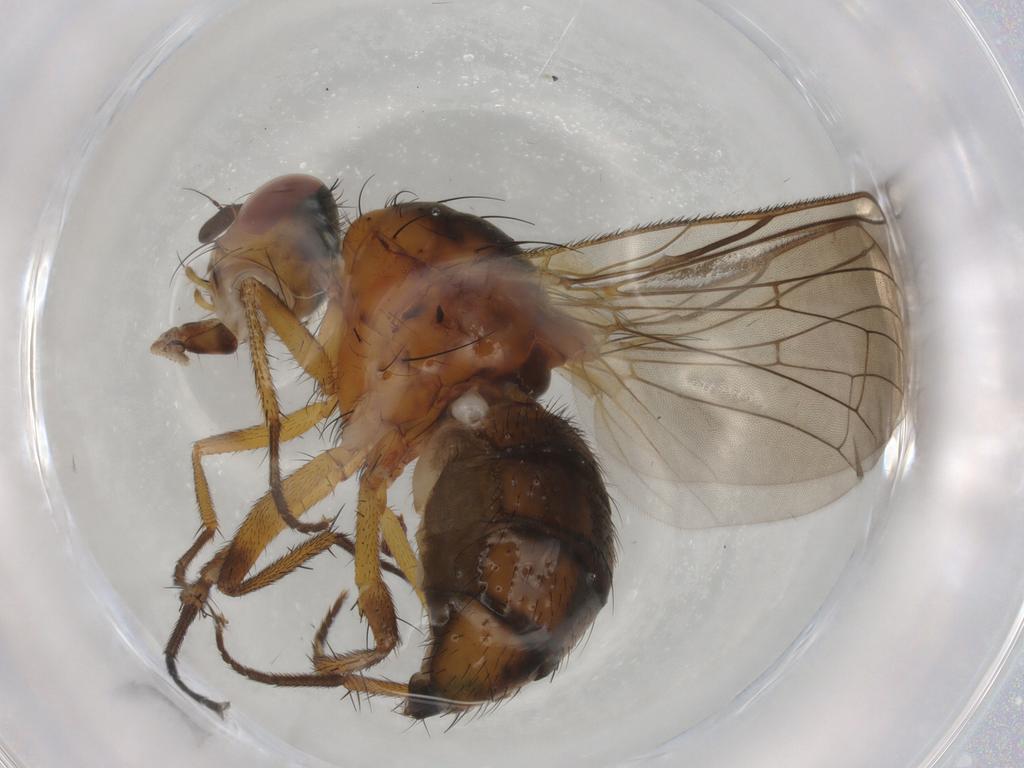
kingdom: Animalia
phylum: Arthropoda
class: Insecta
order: Diptera
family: Anthomyiidae
